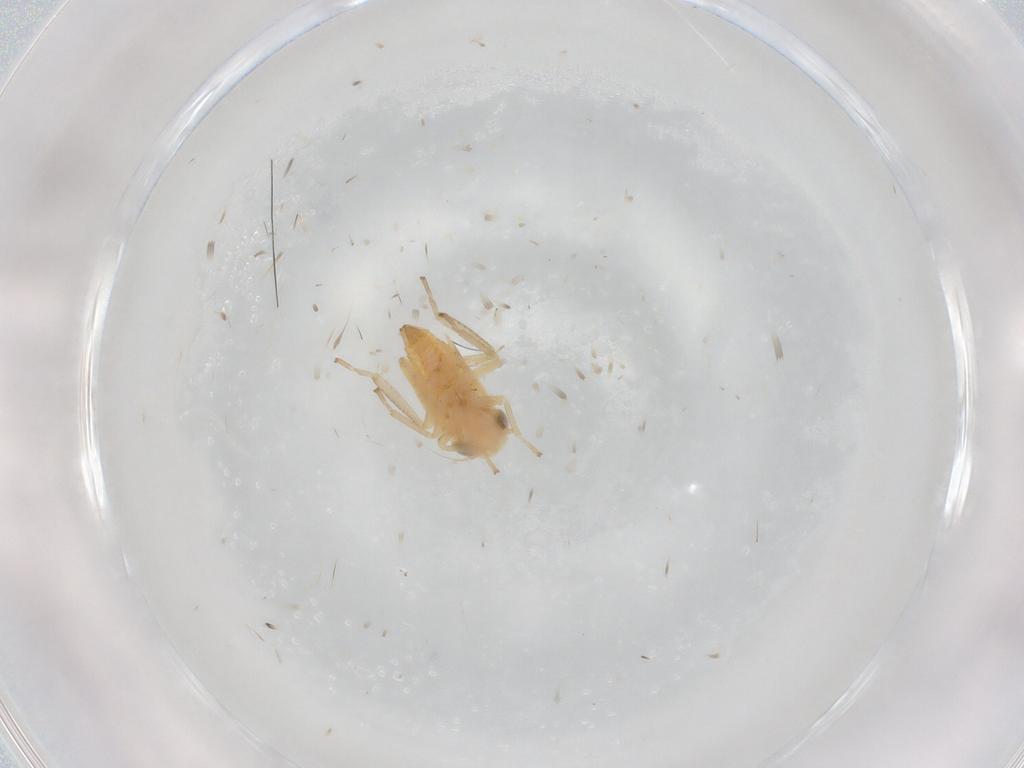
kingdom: Animalia
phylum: Arthropoda
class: Insecta
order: Hemiptera
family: Cicadellidae
